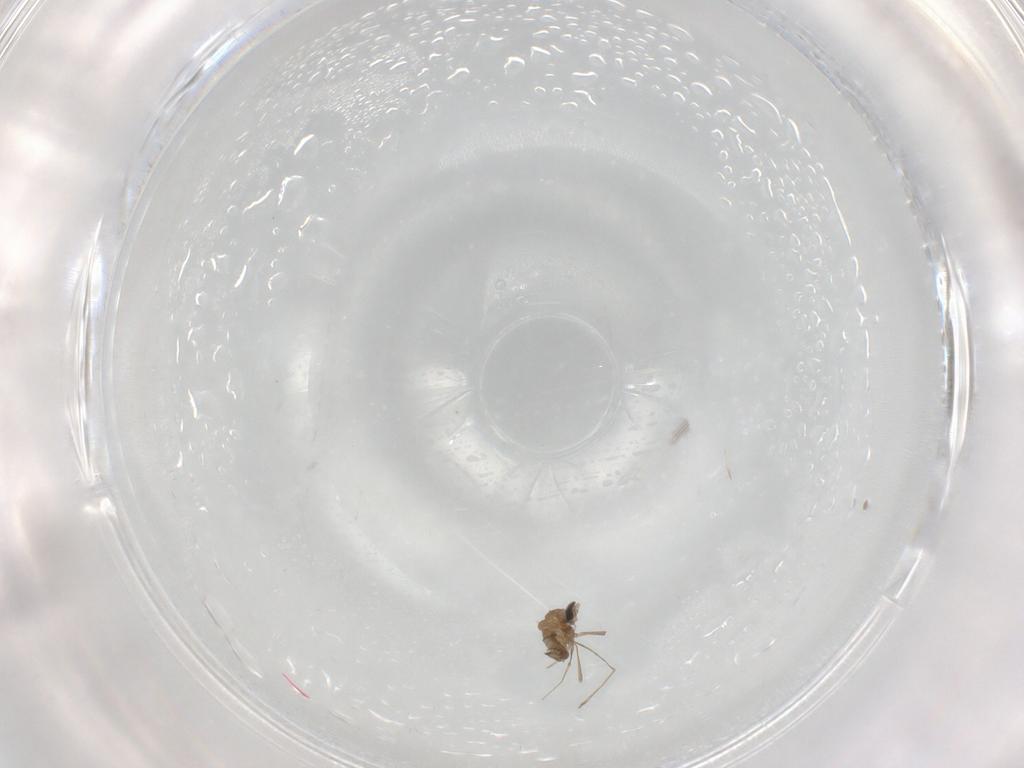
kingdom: Animalia
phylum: Arthropoda
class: Insecta
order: Diptera
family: Cecidomyiidae
